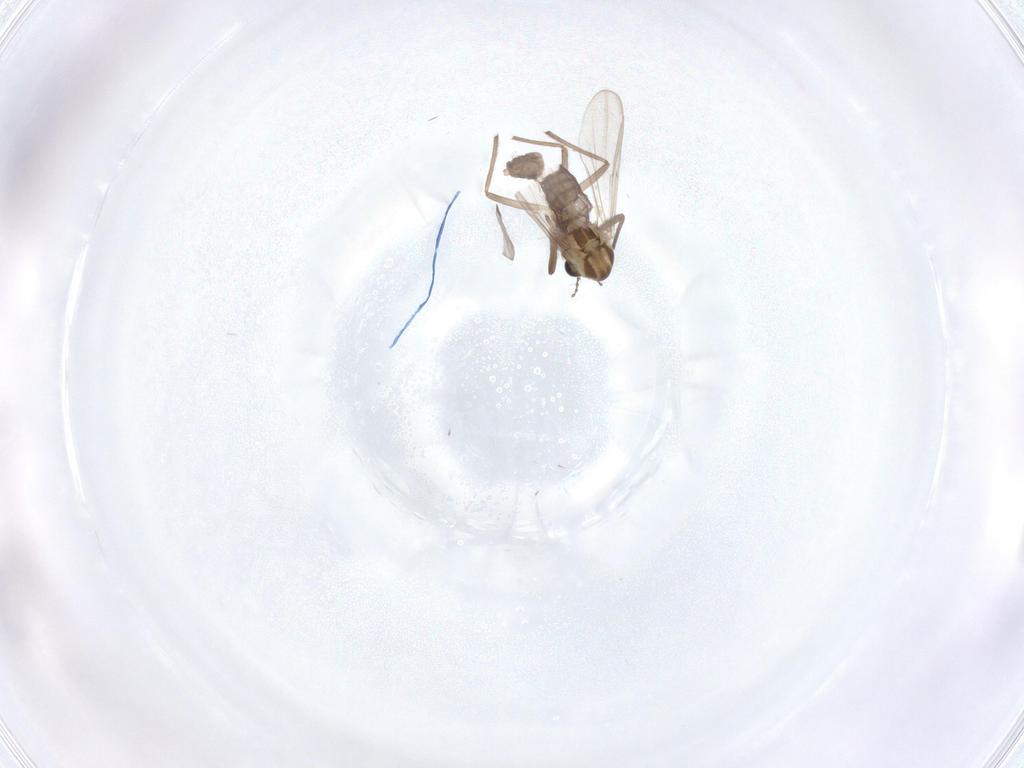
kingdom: Animalia
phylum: Arthropoda
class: Insecta
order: Diptera
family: Chironomidae
